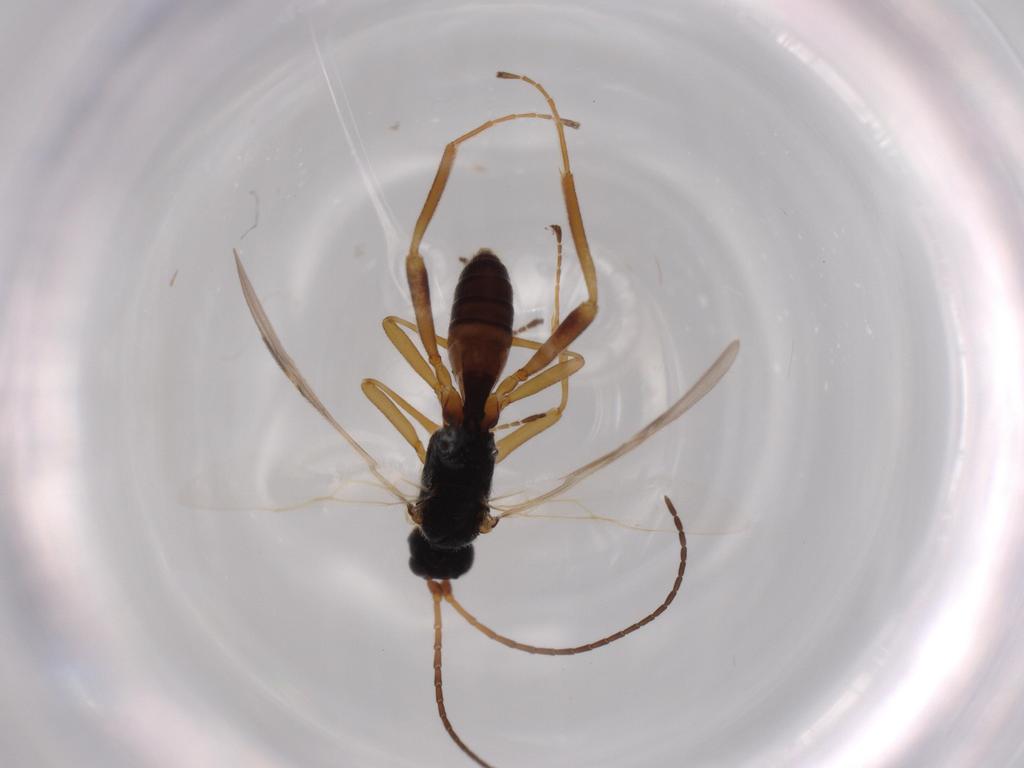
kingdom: Animalia
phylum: Arthropoda
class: Insecta
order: Hymenoptera
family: Braconidae
